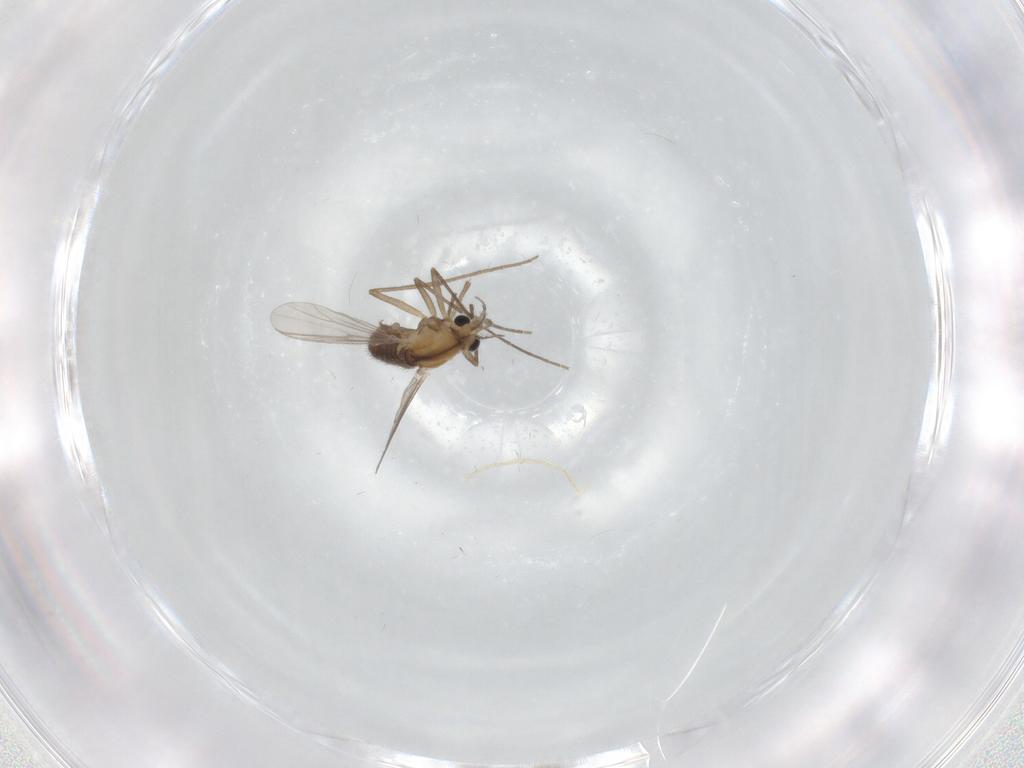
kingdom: Animalia
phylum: Arthropoda
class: Insecta
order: Diptera
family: Chironomidae
